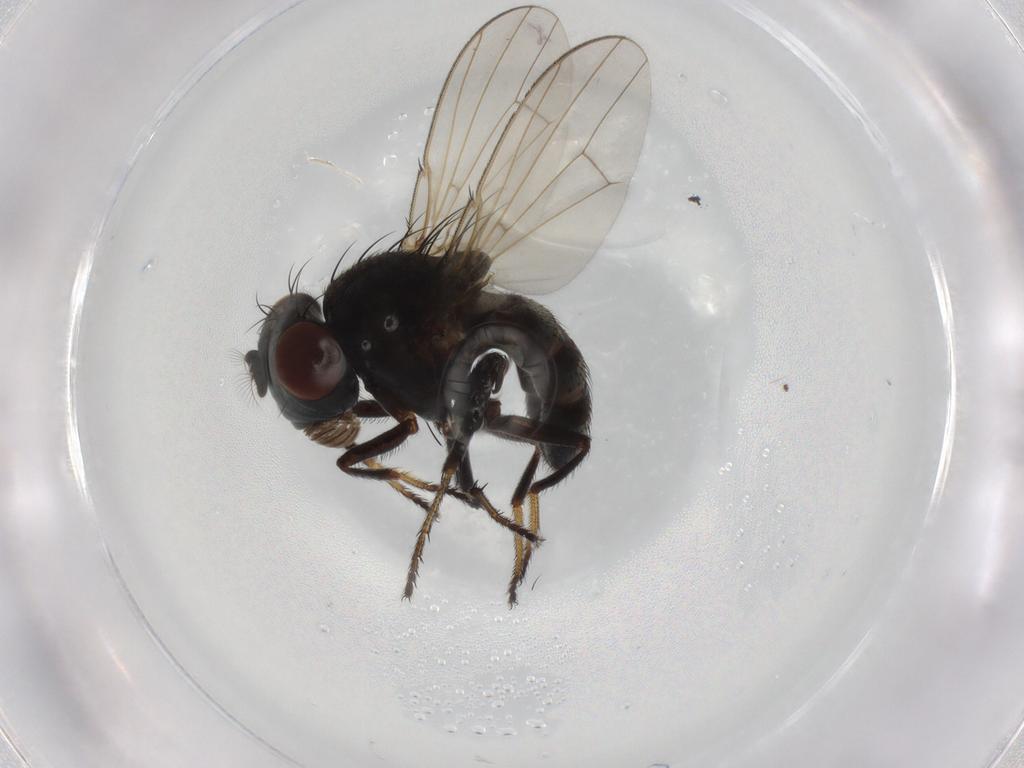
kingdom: Animalia
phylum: Arthropoda
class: Insecta
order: Diptera
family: Ephydridae
